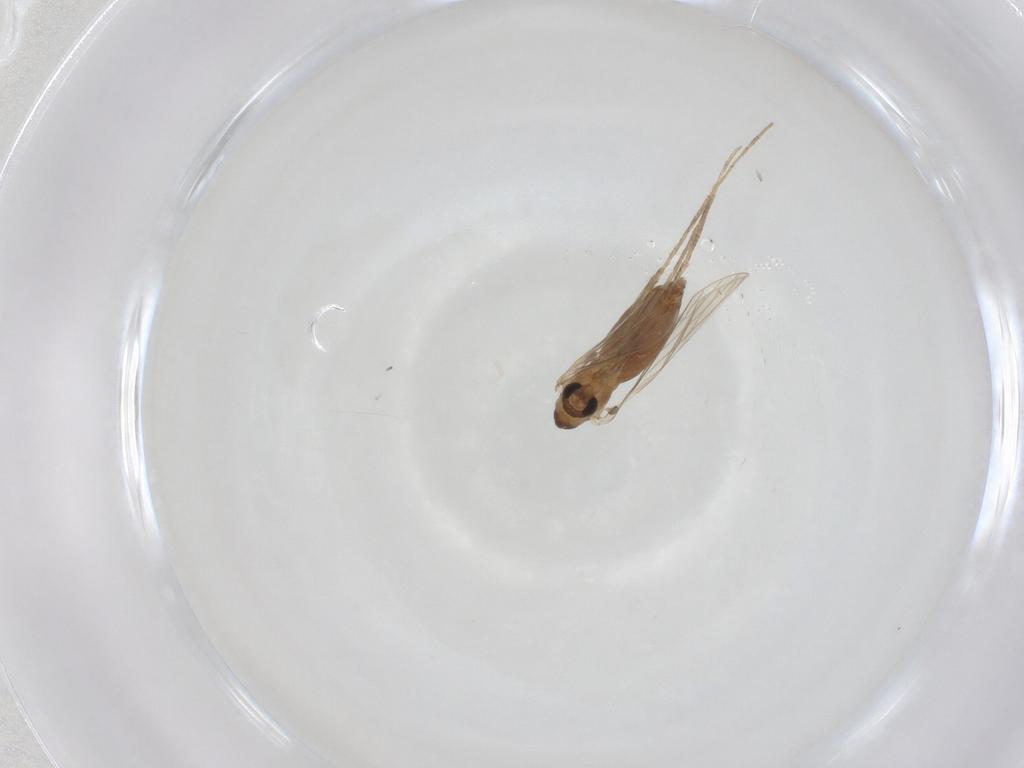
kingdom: Animalia
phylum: Arthropoda
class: Insecta
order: Diptera
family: Psychodidae
